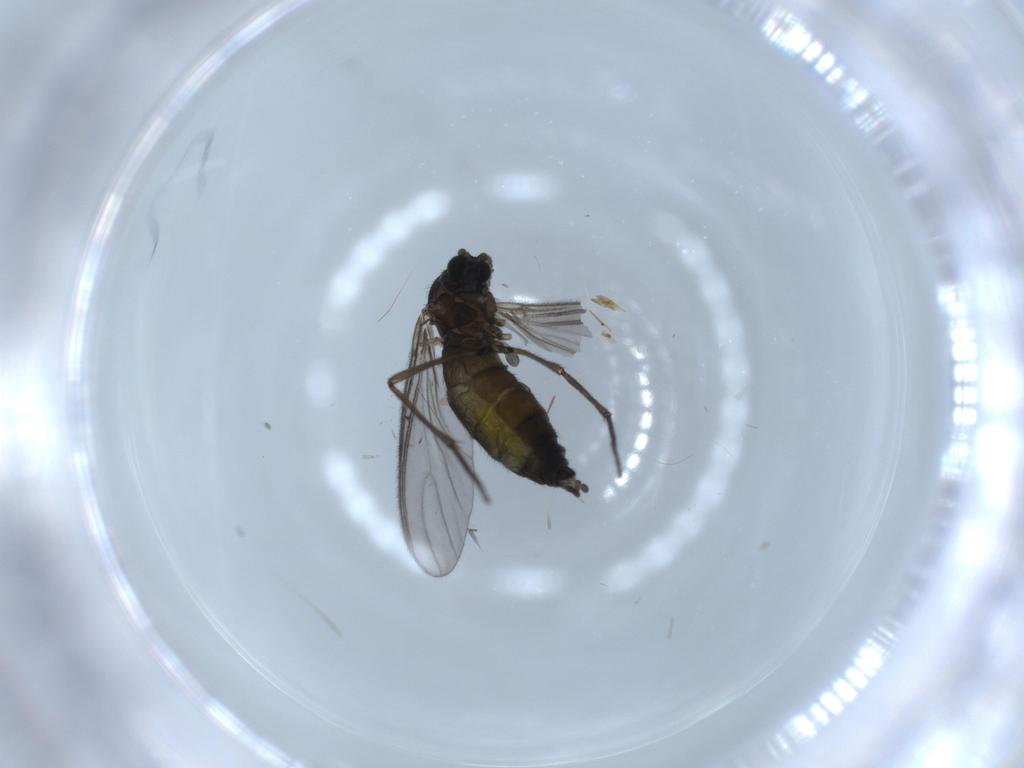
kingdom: Animalia
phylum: Arthropoda
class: Insecta
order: Diptera
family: Sciaridae
